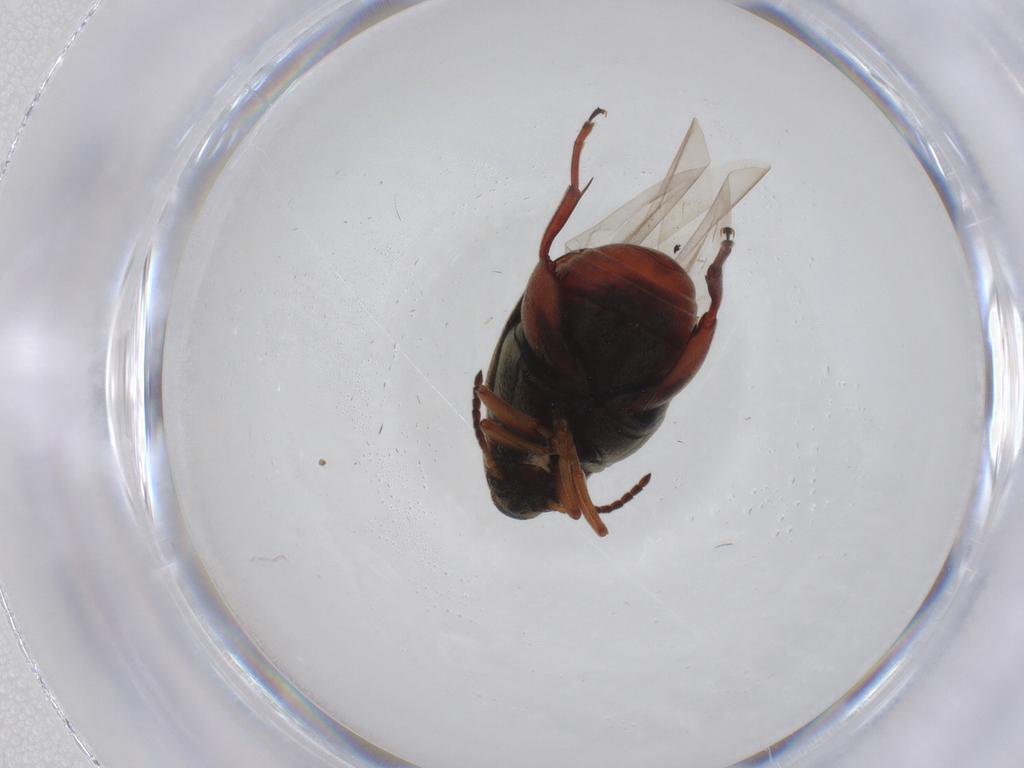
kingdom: Animalia
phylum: Arthropoda
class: Insecta
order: Coleoptera
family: Chrysomelidae
